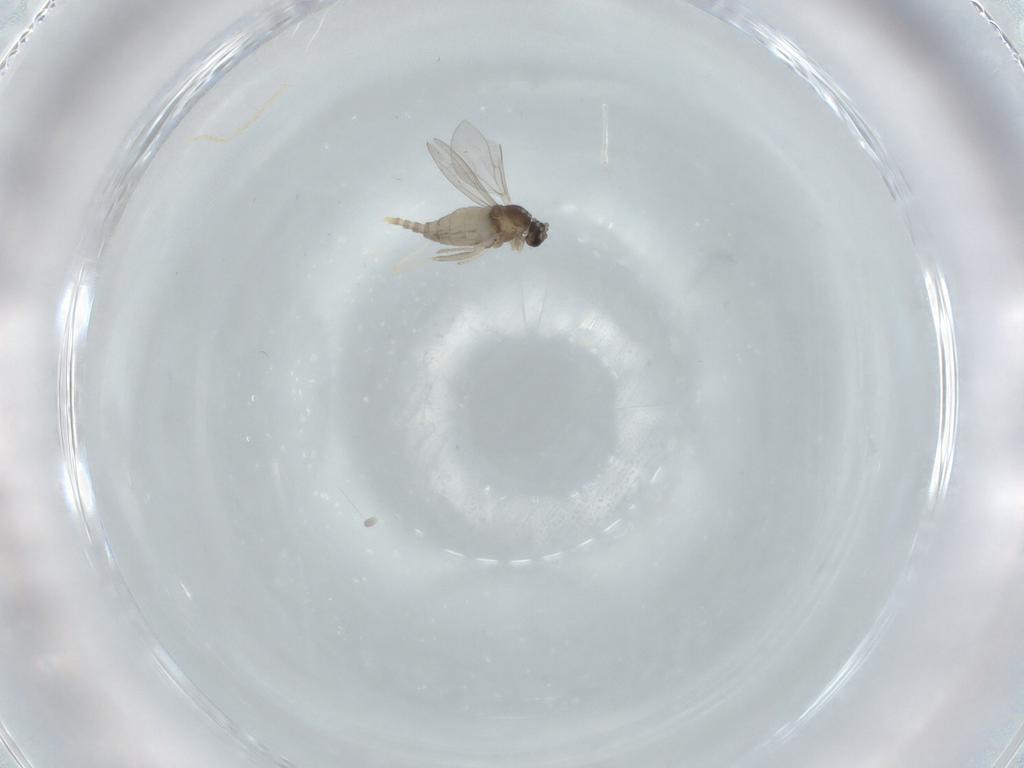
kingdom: Animalia
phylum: Arthropoda
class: Insecta
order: Diptera
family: Cecidomyiidae
